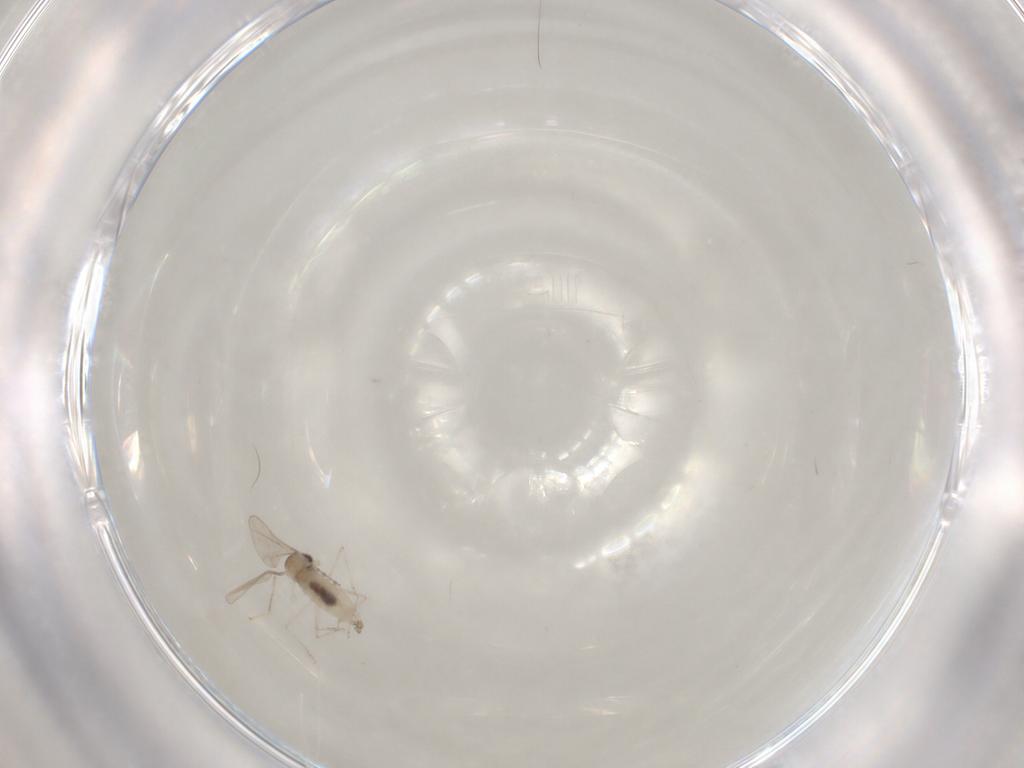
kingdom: Animalia
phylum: Arthropoda
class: Insecta
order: Diptera
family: Cecidomyiidae
